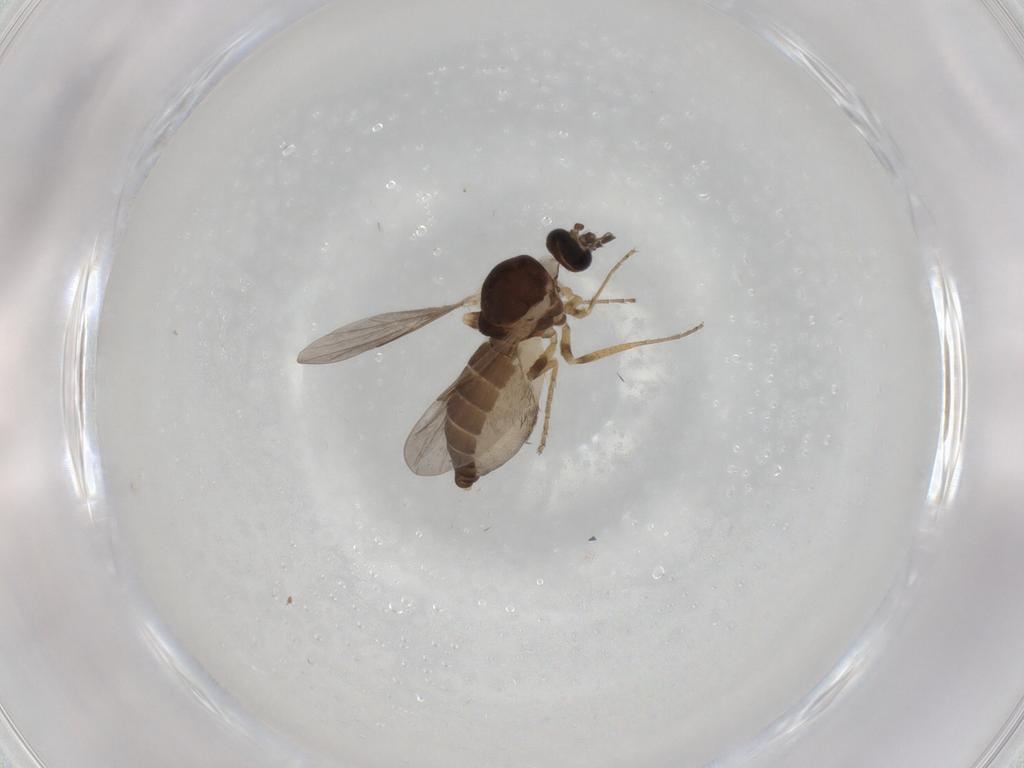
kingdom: Animalia
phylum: Arthropoda
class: Insecta
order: Diptera
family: Ceratopogonidae
